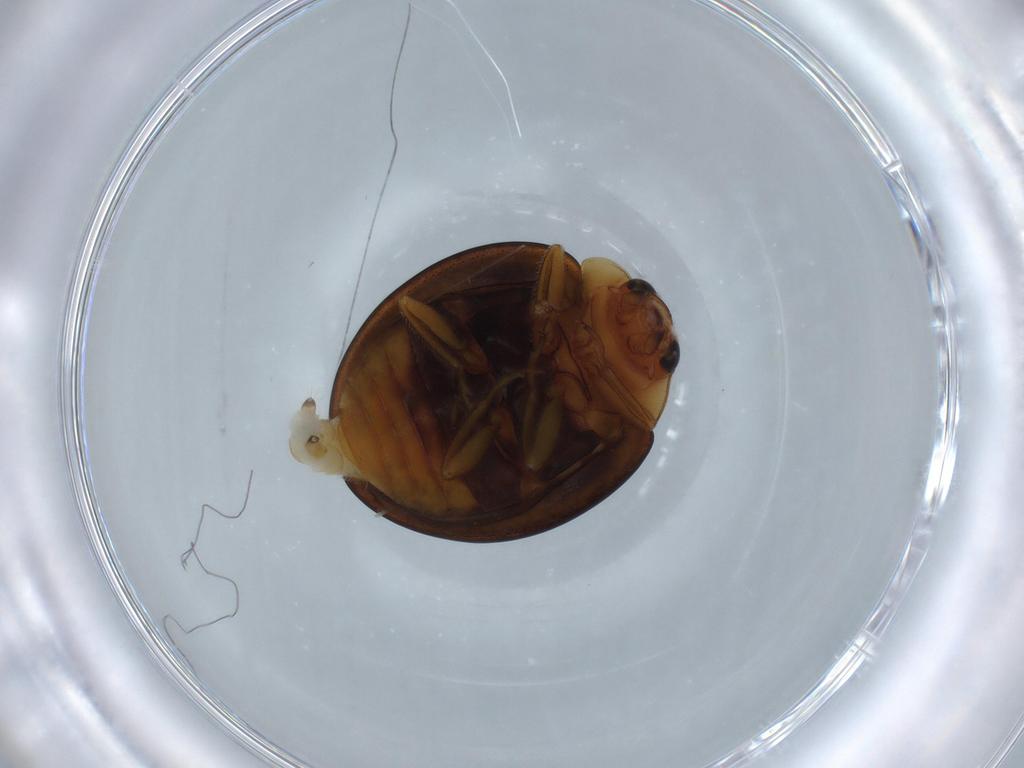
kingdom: Animalia
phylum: Arthropoda
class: Insecta
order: Coleoptera
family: Coccinellidae
